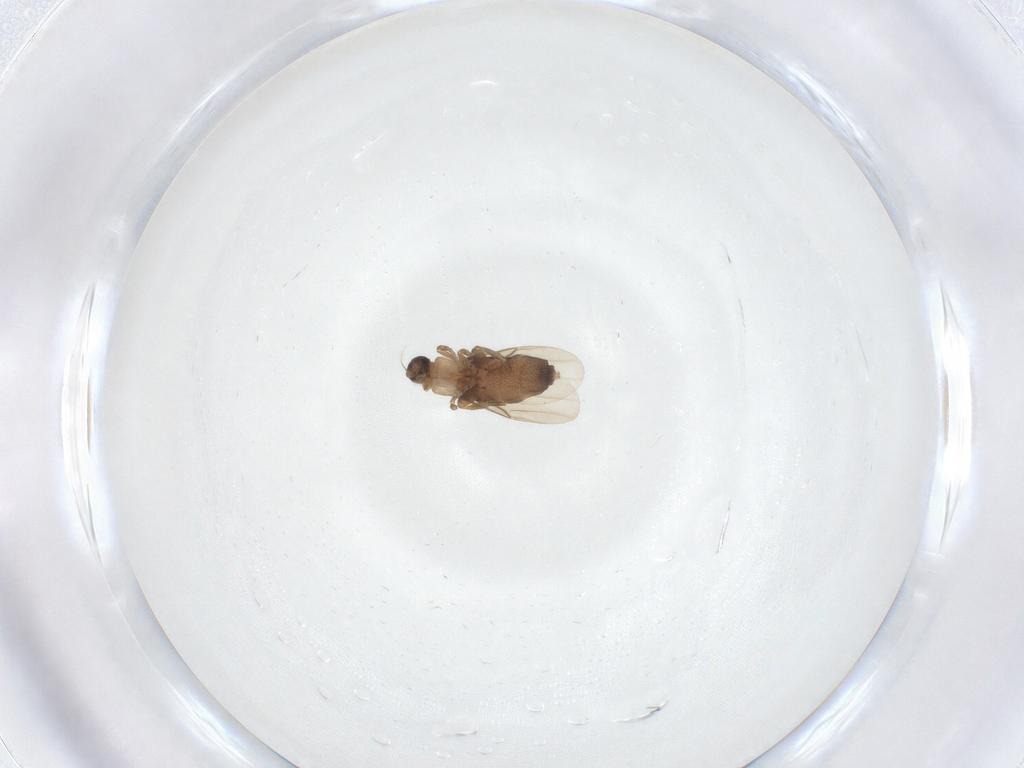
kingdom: Animalia
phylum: Arthropoda
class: Insecta
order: Diptera
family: Phoridae
